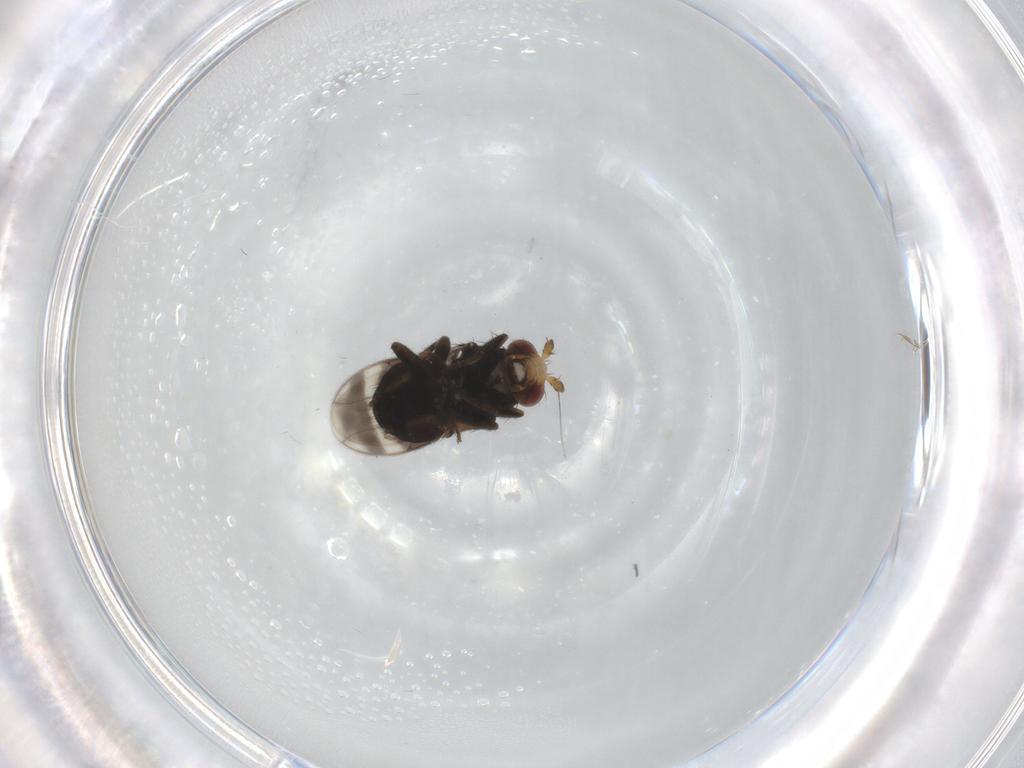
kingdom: Animalia
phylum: Arthropoda
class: Insecta
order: Diptera
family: Sphaeroceridae
